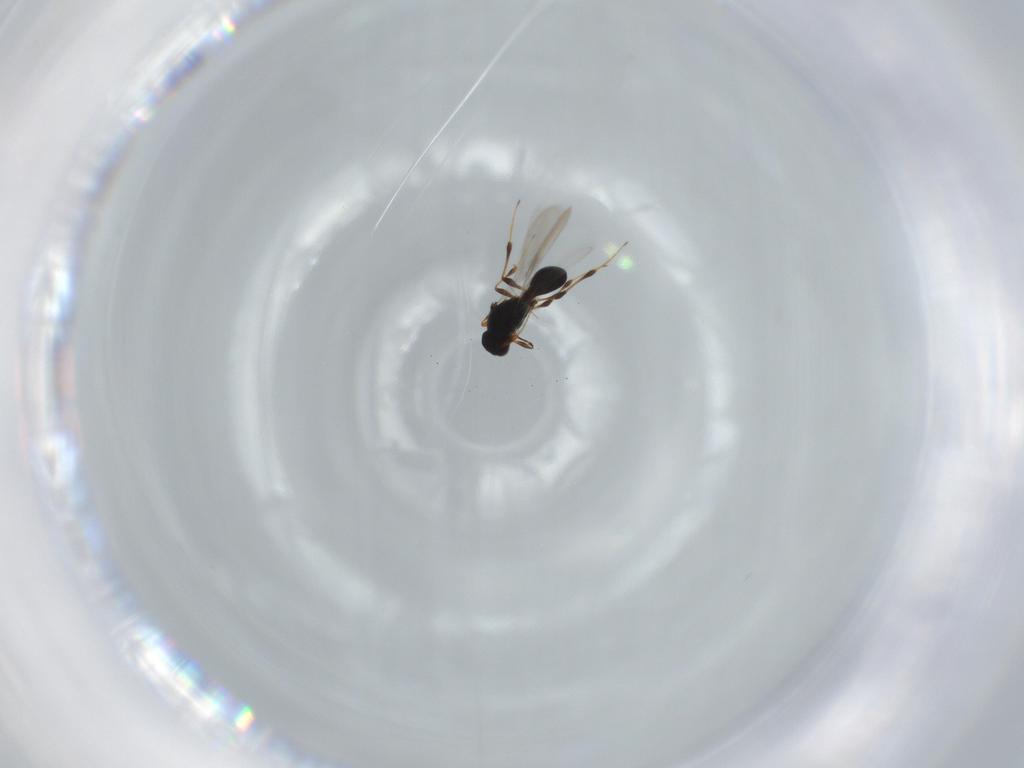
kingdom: Animalia
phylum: Arthropoda
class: Insecta
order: Hymenoptera
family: Platygastridae
